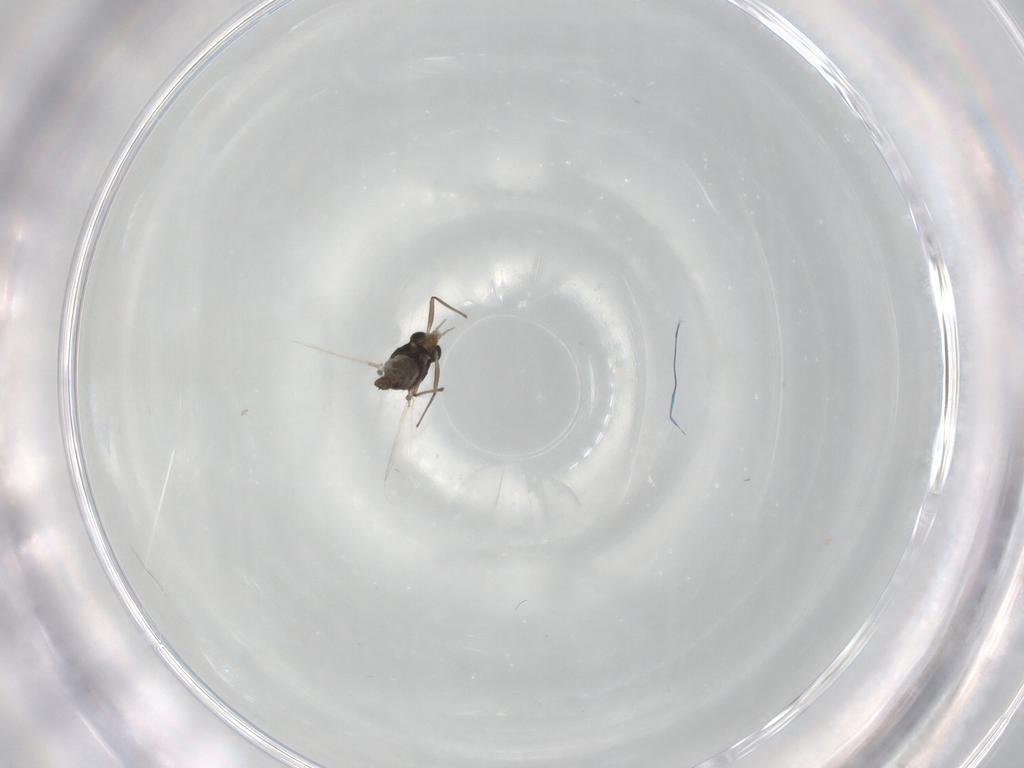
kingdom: Animalia
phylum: Arthropoda
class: Insecta
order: Diptera
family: Chironomidae
